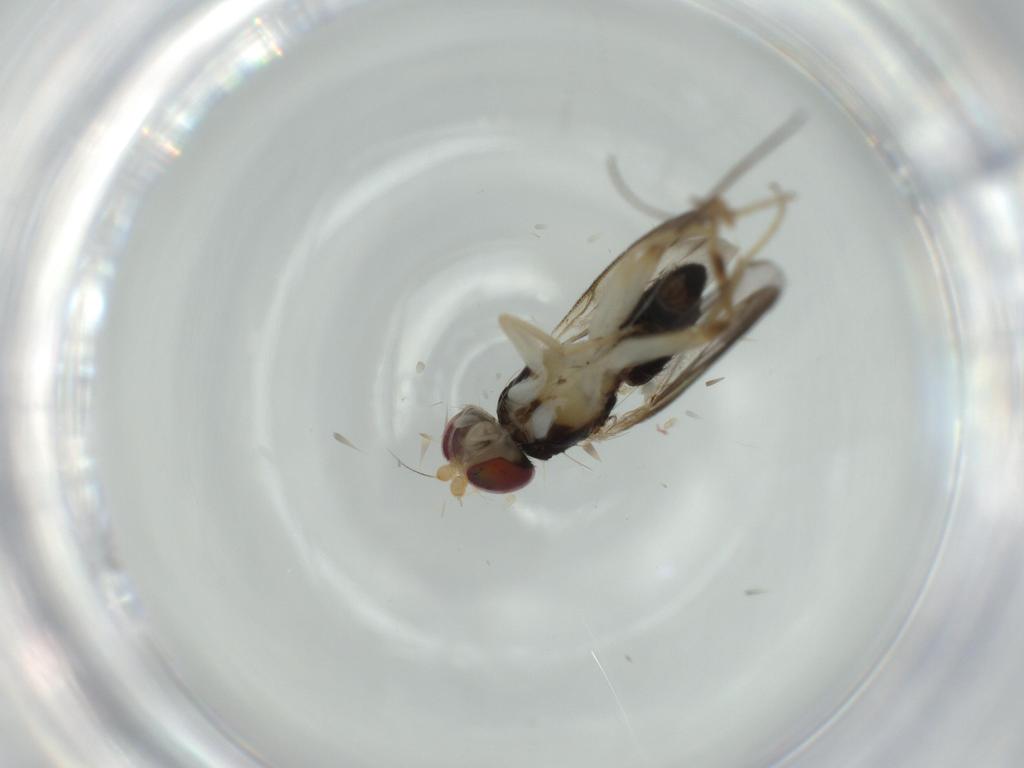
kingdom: Animalia
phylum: Arthropoda
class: Insecta
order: Diptera
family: Clusiidae
